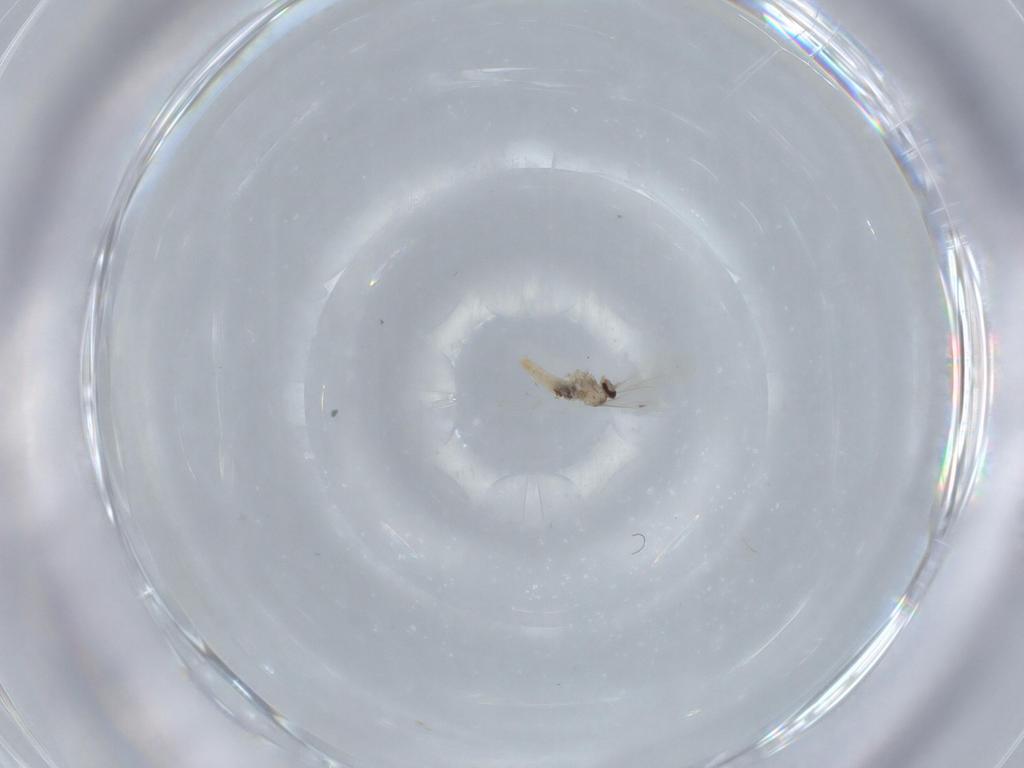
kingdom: Animalia
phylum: Arthropoda
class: Insecta
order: Diptera
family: Cecidomyiidae
